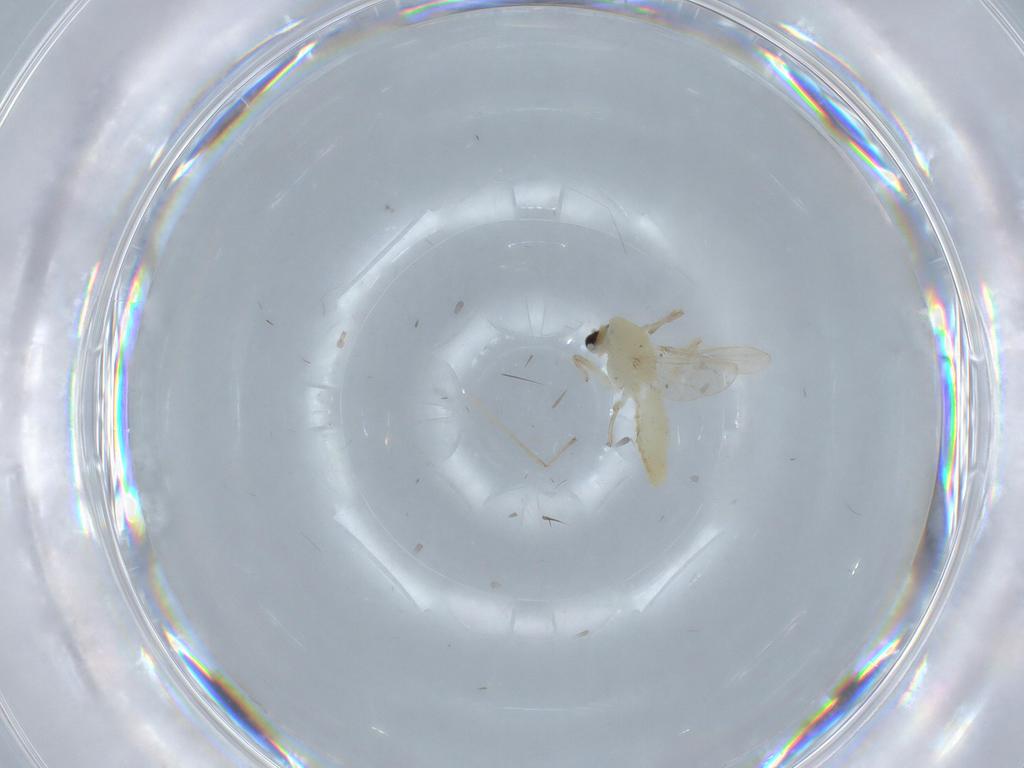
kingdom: Animalia
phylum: Arthropoda
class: Insecta
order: Diptera
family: Chironomidae
